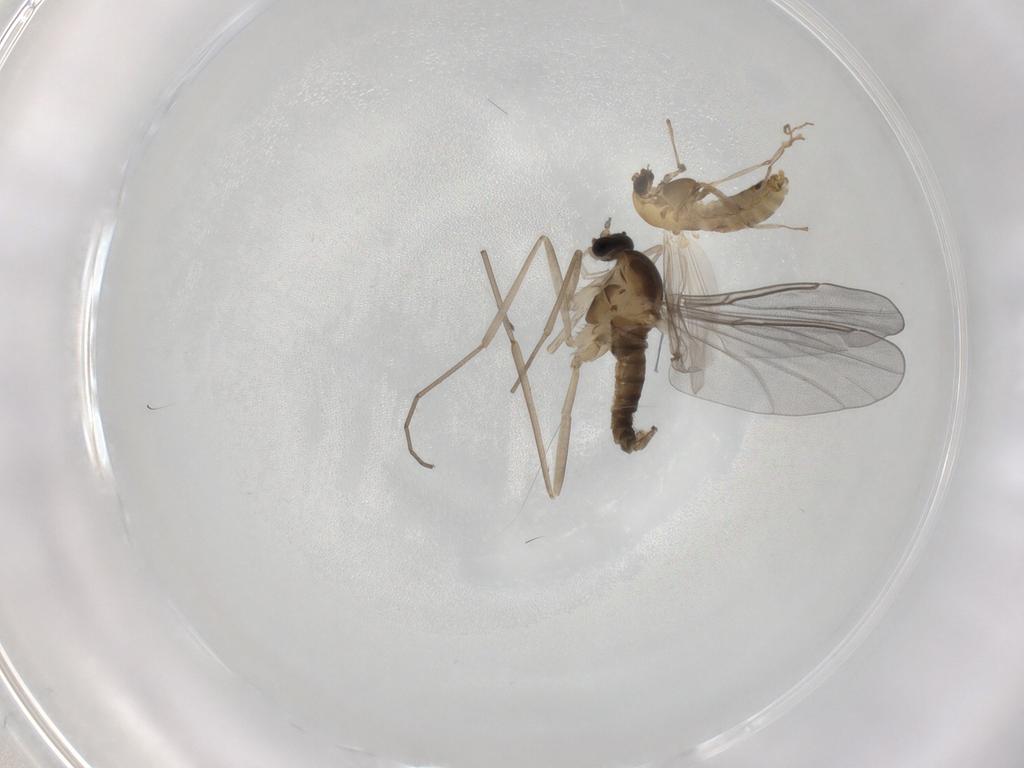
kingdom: Animalia
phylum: Arthropoda
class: Insecta
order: Diptera
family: Chironomidae
